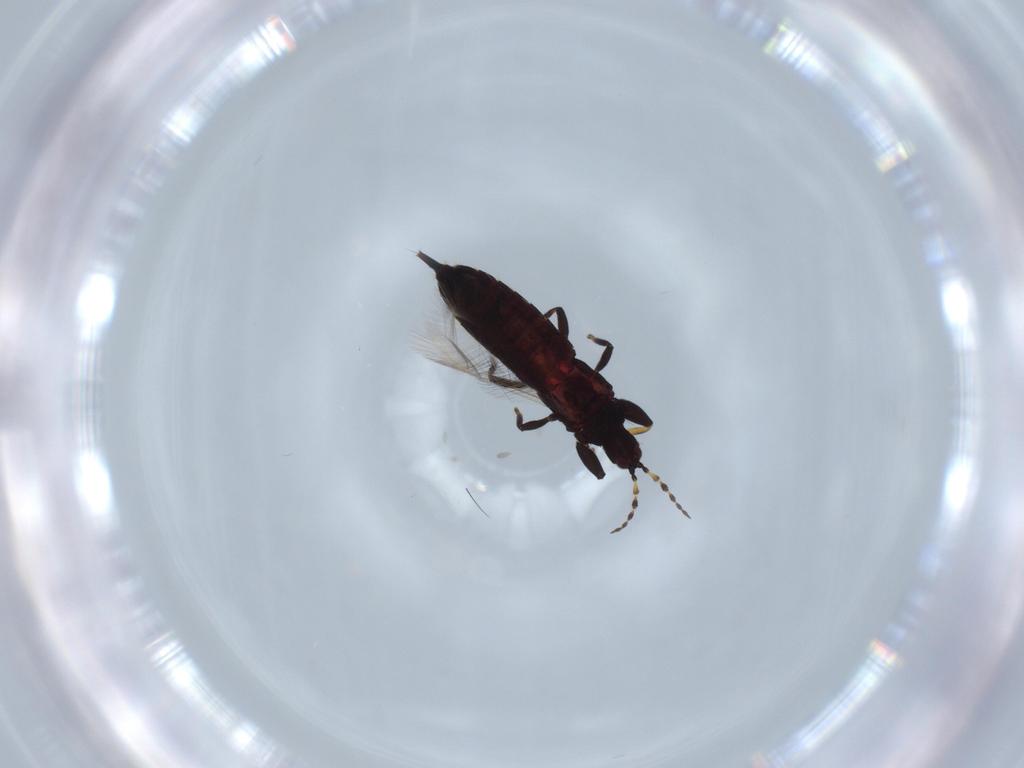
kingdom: Animalia
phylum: Arthropoda
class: Insecta
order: Thysanoptera
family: Phlaeothripidae
